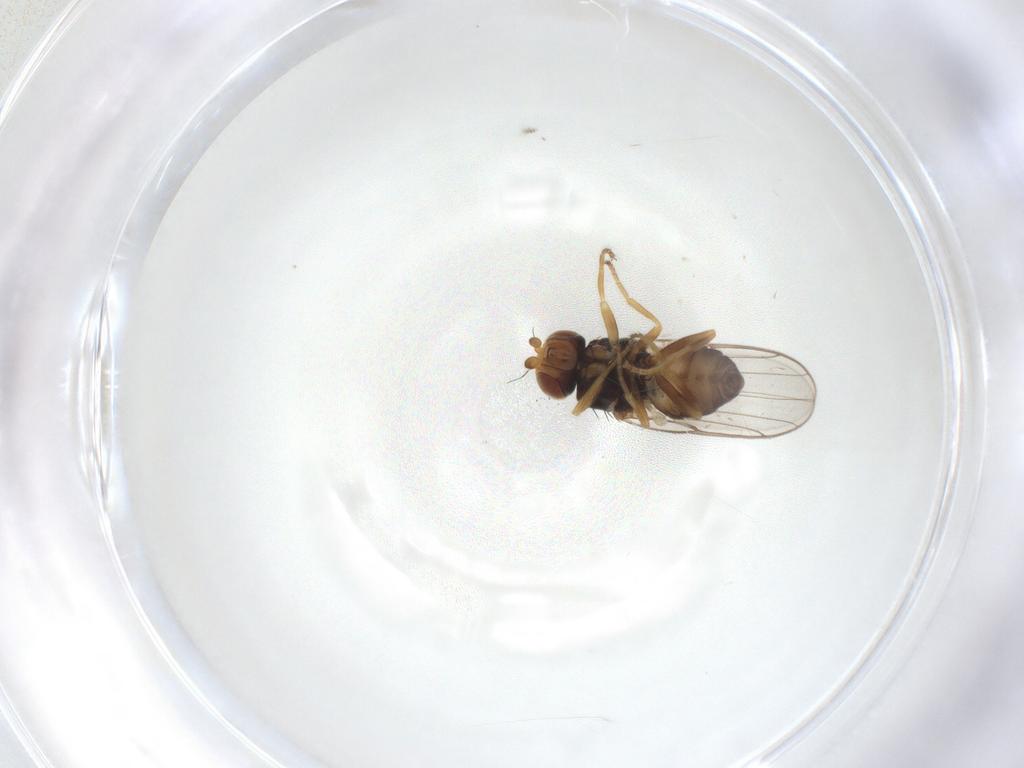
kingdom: Animalia
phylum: Arthropoda
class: Insecta
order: Diptera
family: Chloropidae
